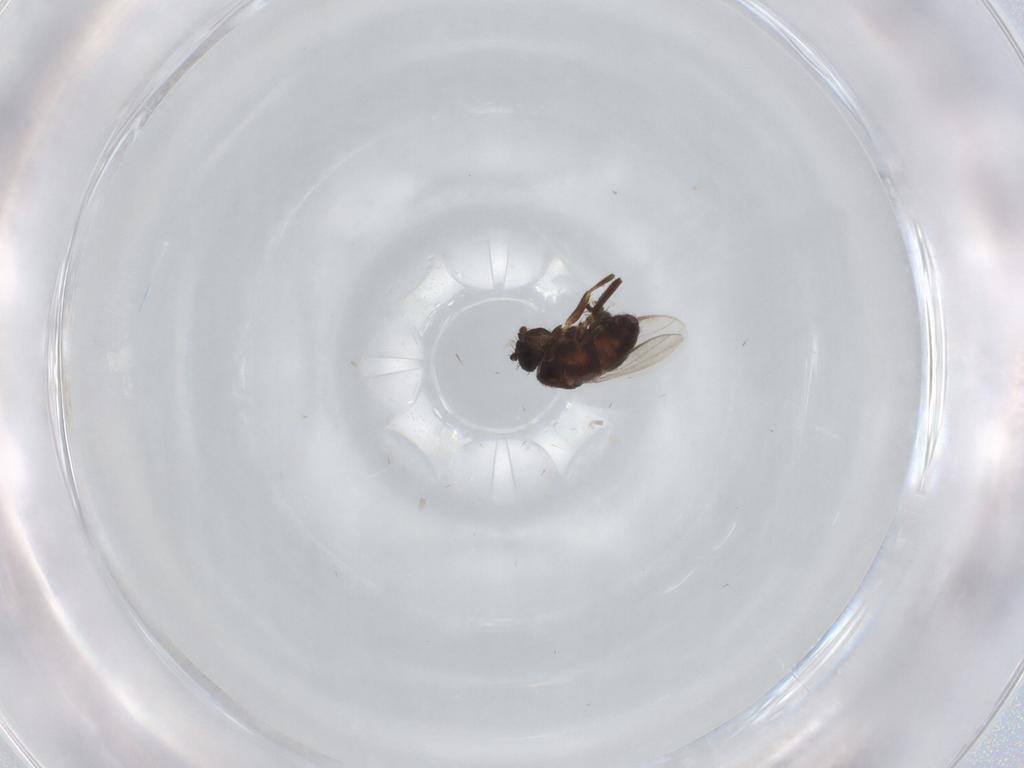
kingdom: Animalia
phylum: Arthropoda
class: Insecta
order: Diptera
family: Sphaeroceridae
